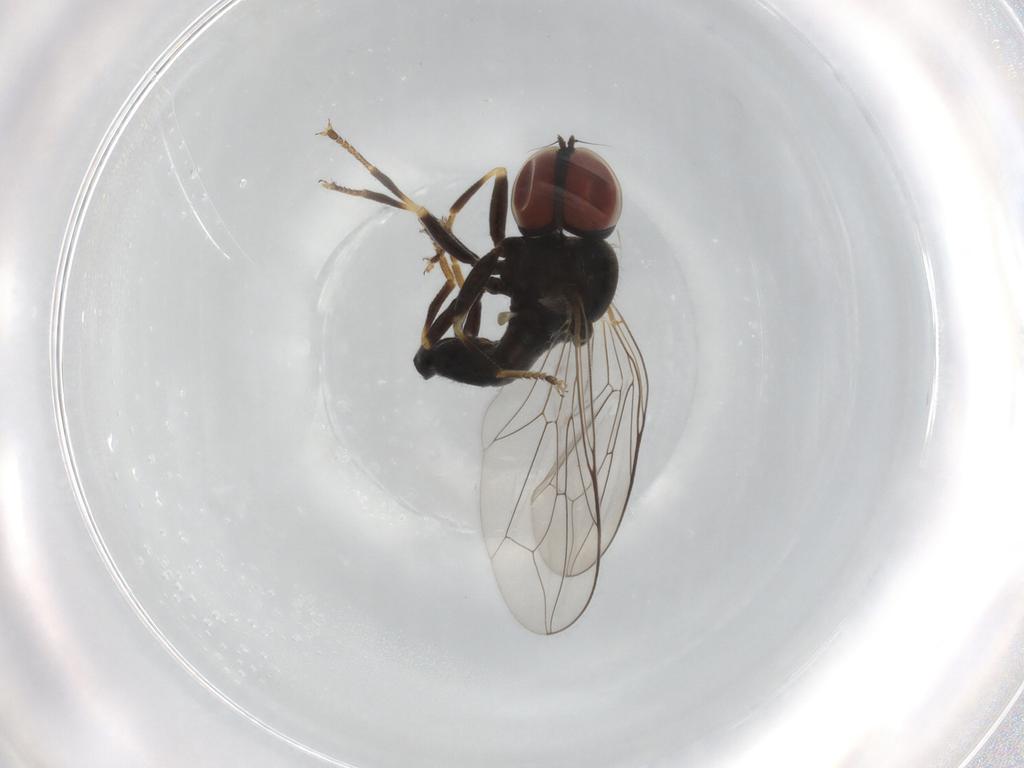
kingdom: Animalia
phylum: Arthropoda
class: Insecta
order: Diptera
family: Pipunculidae
